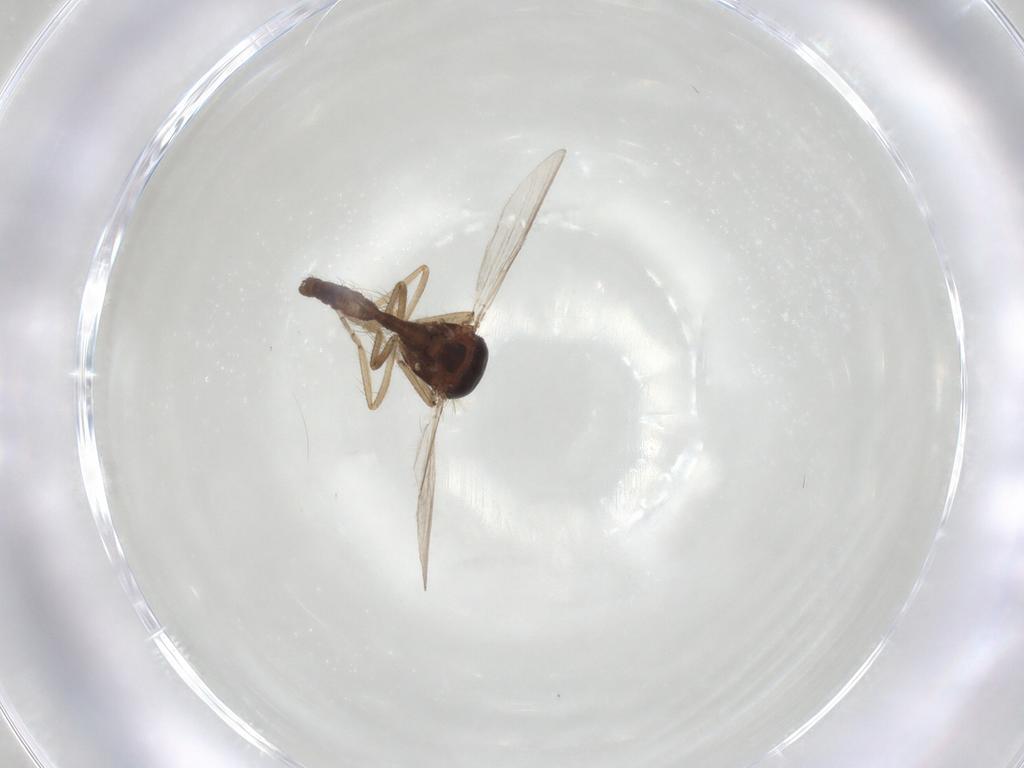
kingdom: Animalia
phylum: Arthropoda
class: Insecta
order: Diptera
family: Ceratopogonidae
